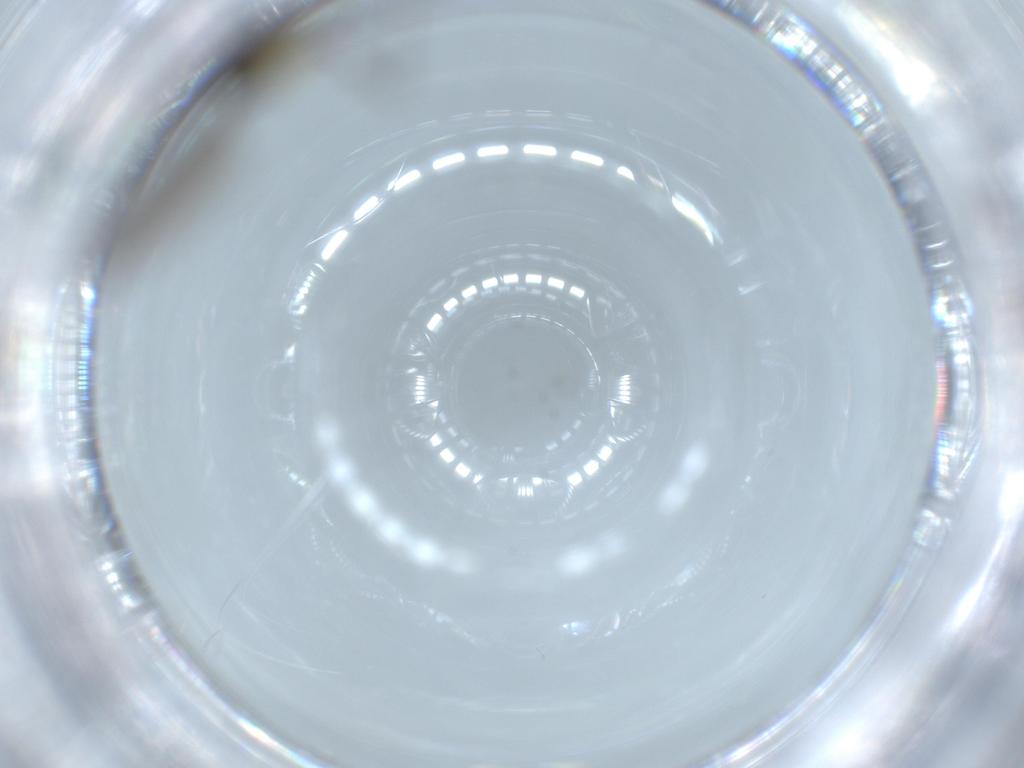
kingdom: Animalia
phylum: Arthropoda
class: Insecta
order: Diptera
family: Sciaridae
